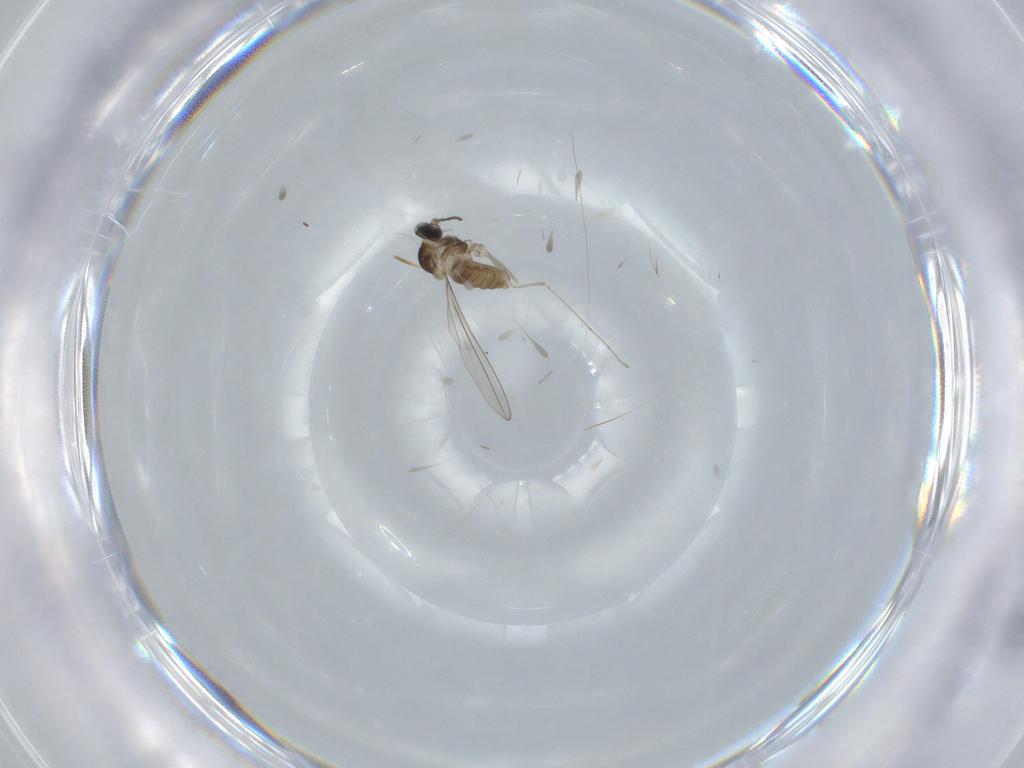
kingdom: Animalia
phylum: Arthropoda
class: Insecta
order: Diptera
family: Cecidomyiidae
